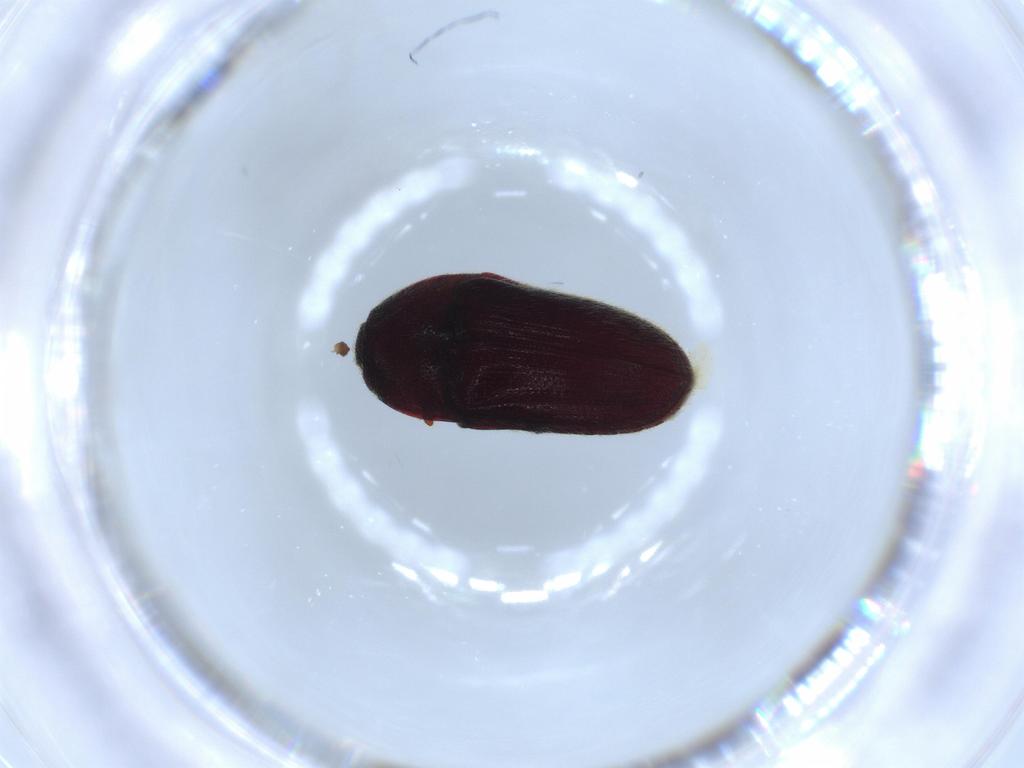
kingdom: Animalia
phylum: Arthropoda
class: Insecta
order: Coleoptera
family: Throscidae
